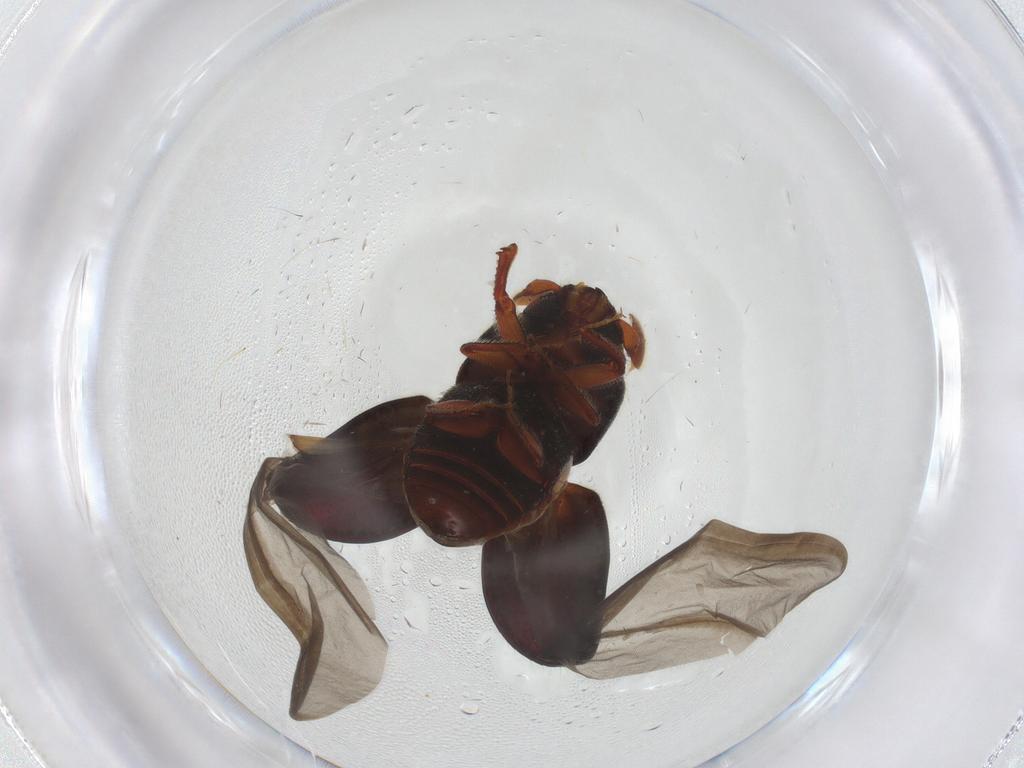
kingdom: Animalia
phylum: Arthropoda
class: Insecta
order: Coleoptera
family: Curculionidae
